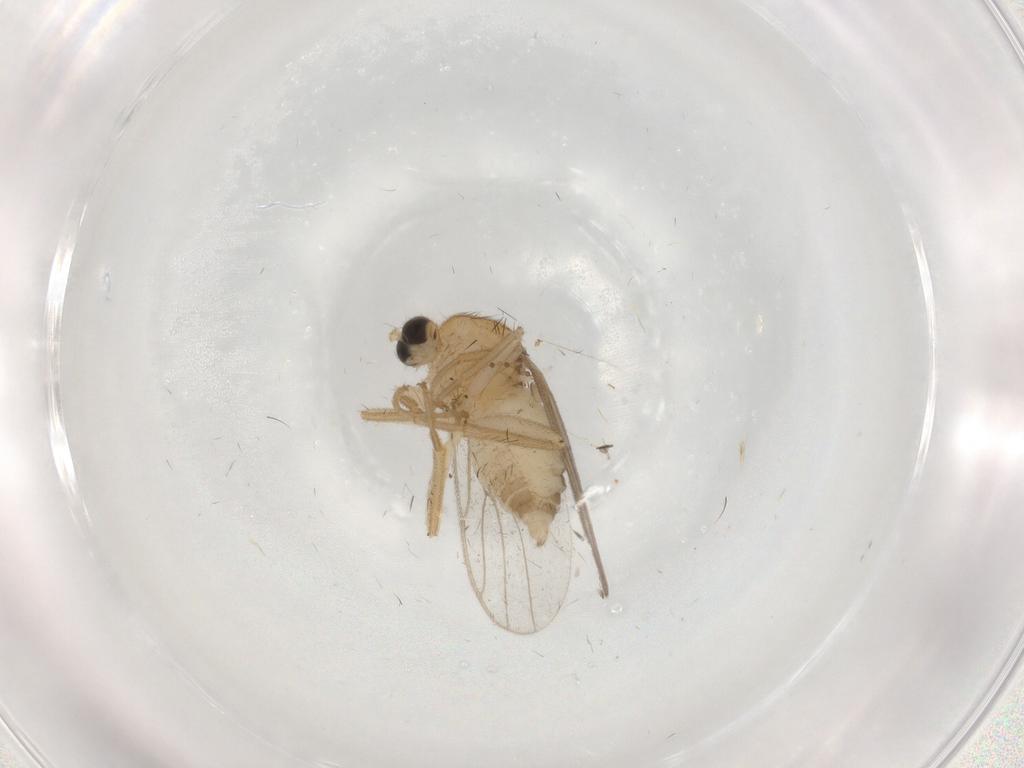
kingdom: Animalia
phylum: Arthropoda
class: Insecta
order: Diptera
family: Hybotidae
